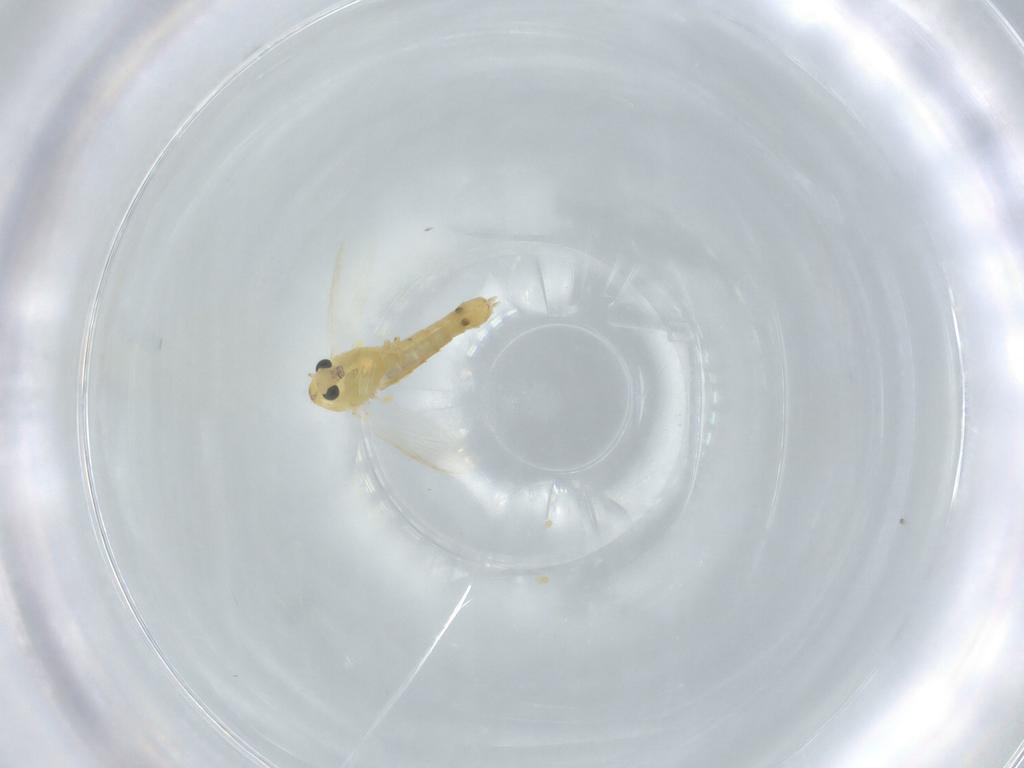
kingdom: Animalia
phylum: Arthropoda
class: Insecta
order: Diptera
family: Chironomidae
